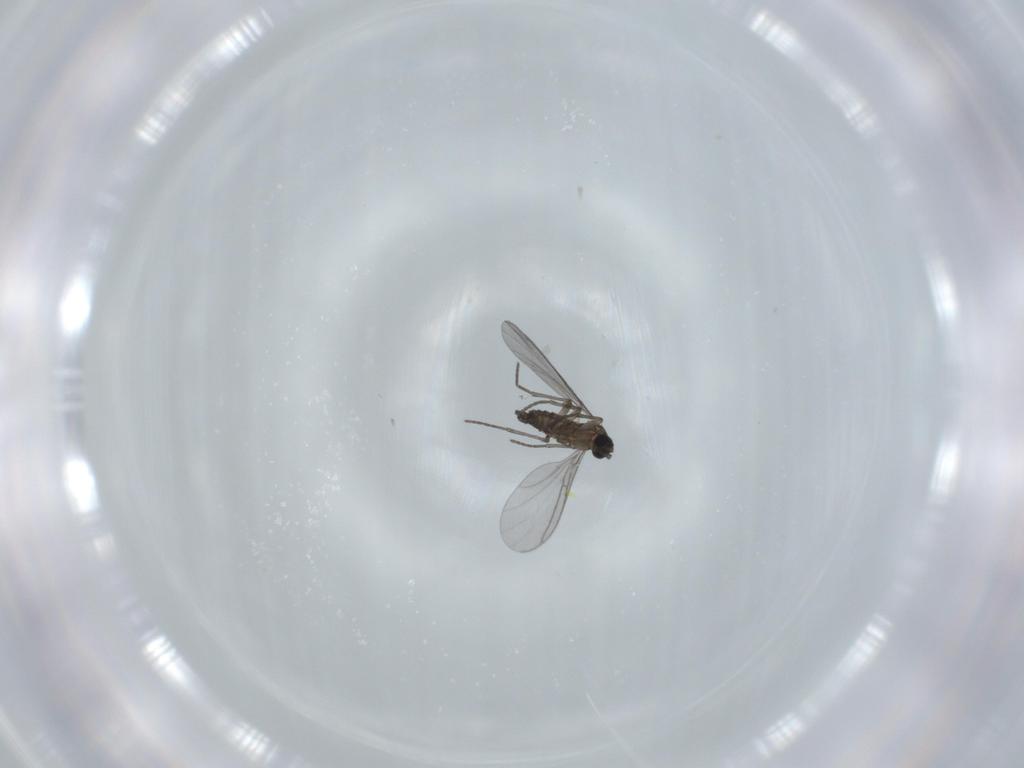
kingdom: Animalia
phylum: Arthropoda
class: Insecta
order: Diptera
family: Phoridae
